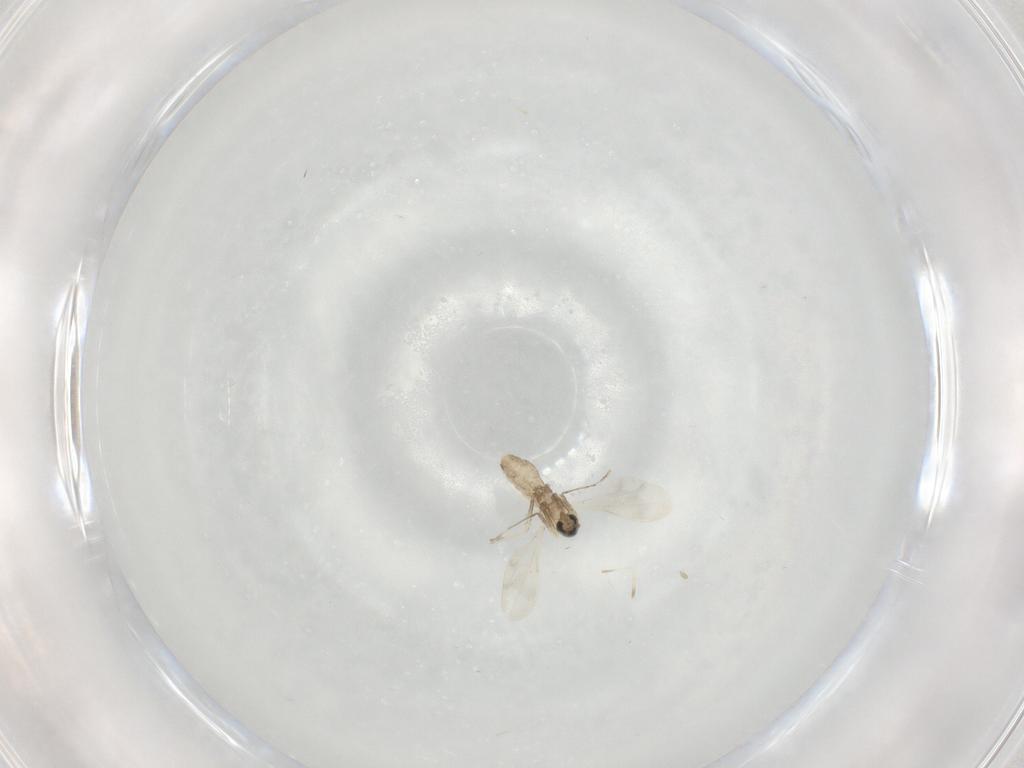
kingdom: Animalia
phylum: Arthropoda
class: Insecta
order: Diptera
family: Cecidomyiidae
